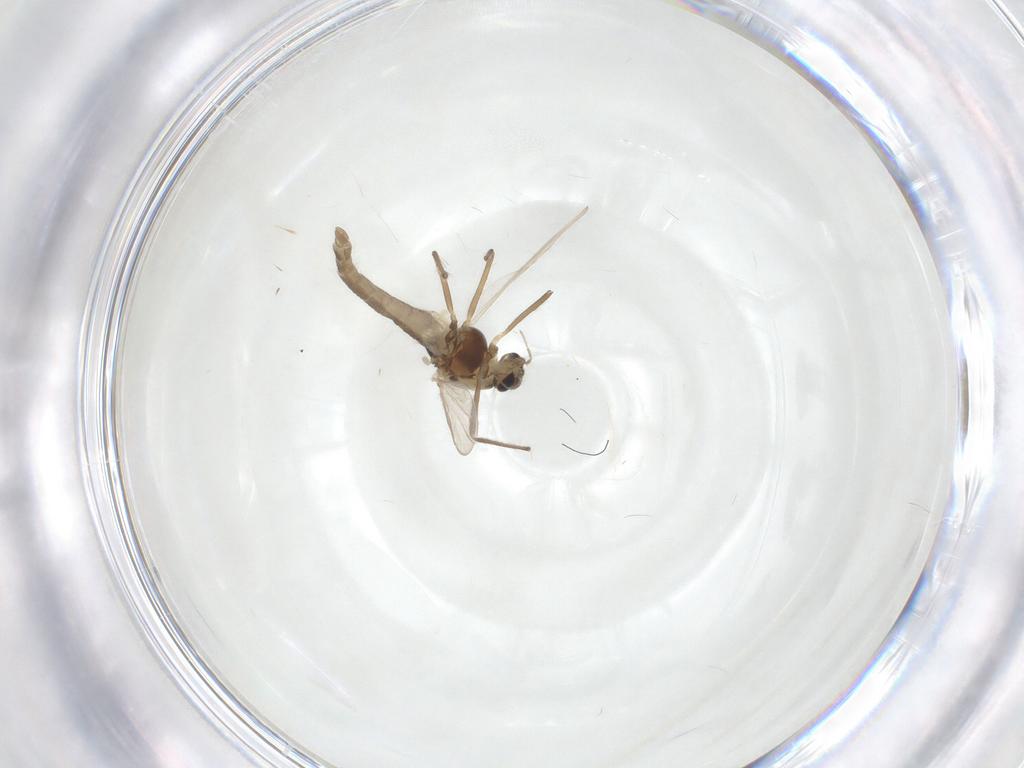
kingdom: Animalia
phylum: Arthropoda
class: Insecta
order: Diptera
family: Chironomidae
